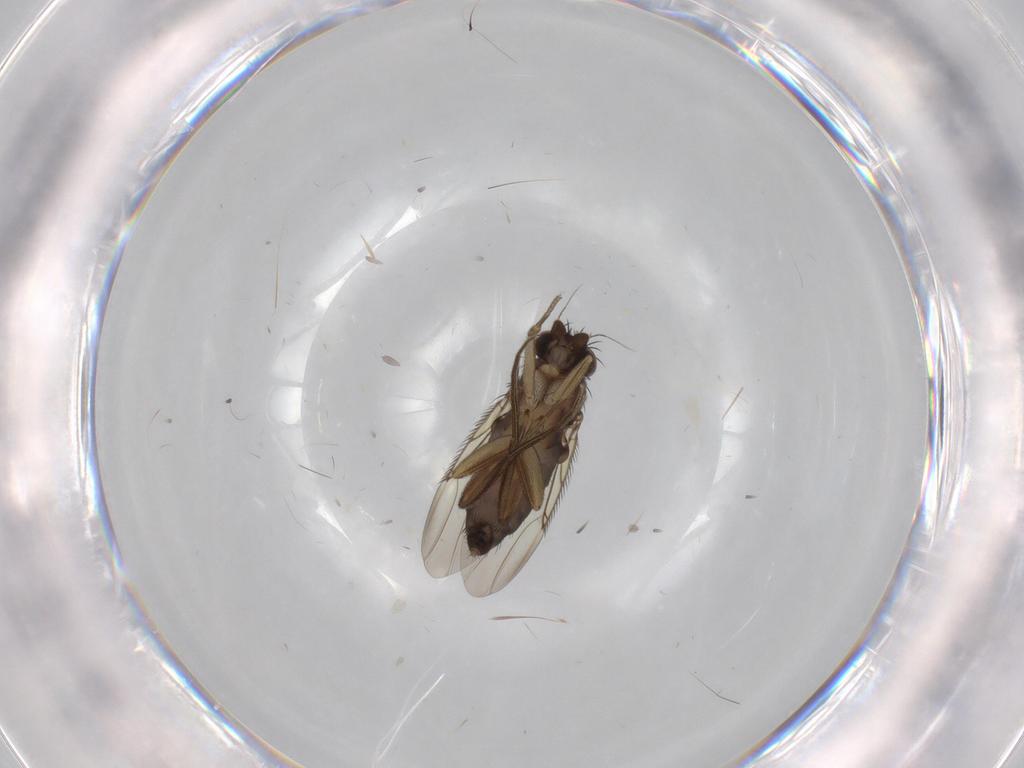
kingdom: Animalia
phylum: Arthropoda
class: Insecta
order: Diptera
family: Phoridae
